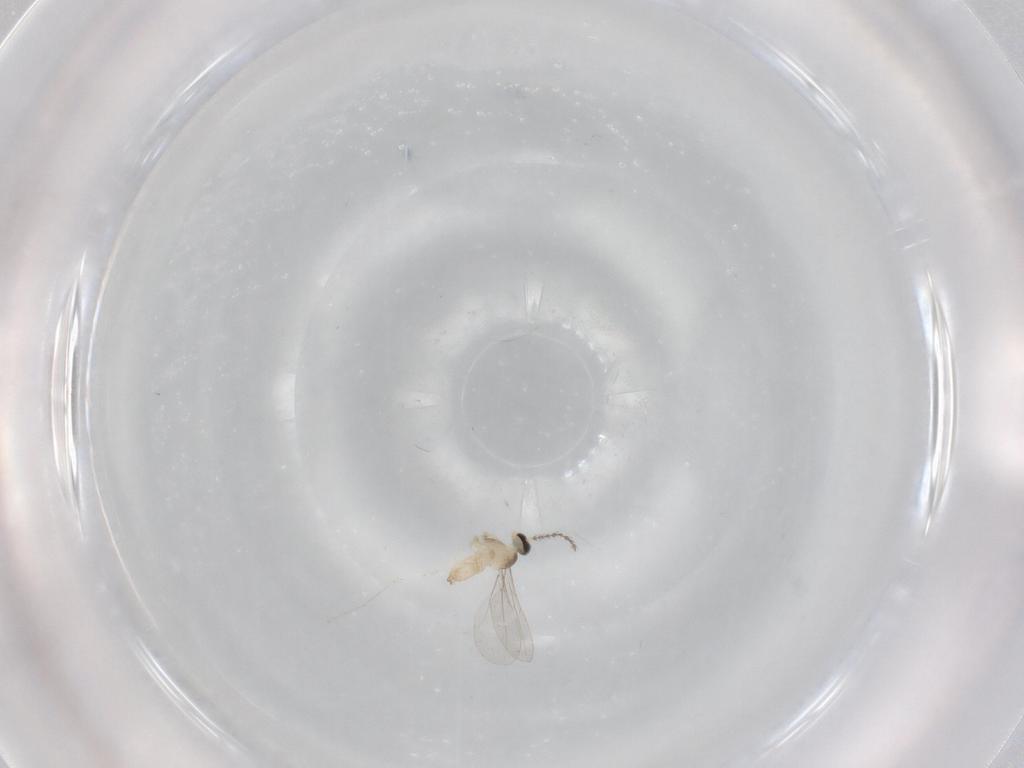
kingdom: Animalia
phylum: Arthropoda
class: Insecta
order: Diptera
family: Cecidomyiidae
